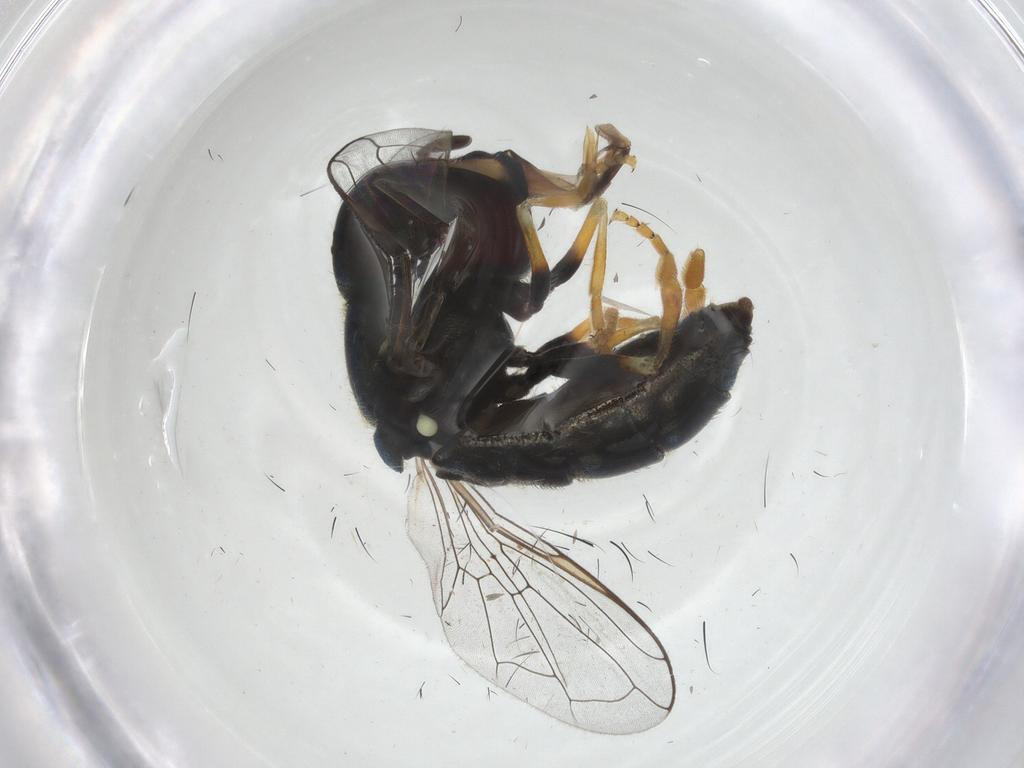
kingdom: Animalia
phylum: Arthropoda
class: Insecta
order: Diptera
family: Syrphidae
